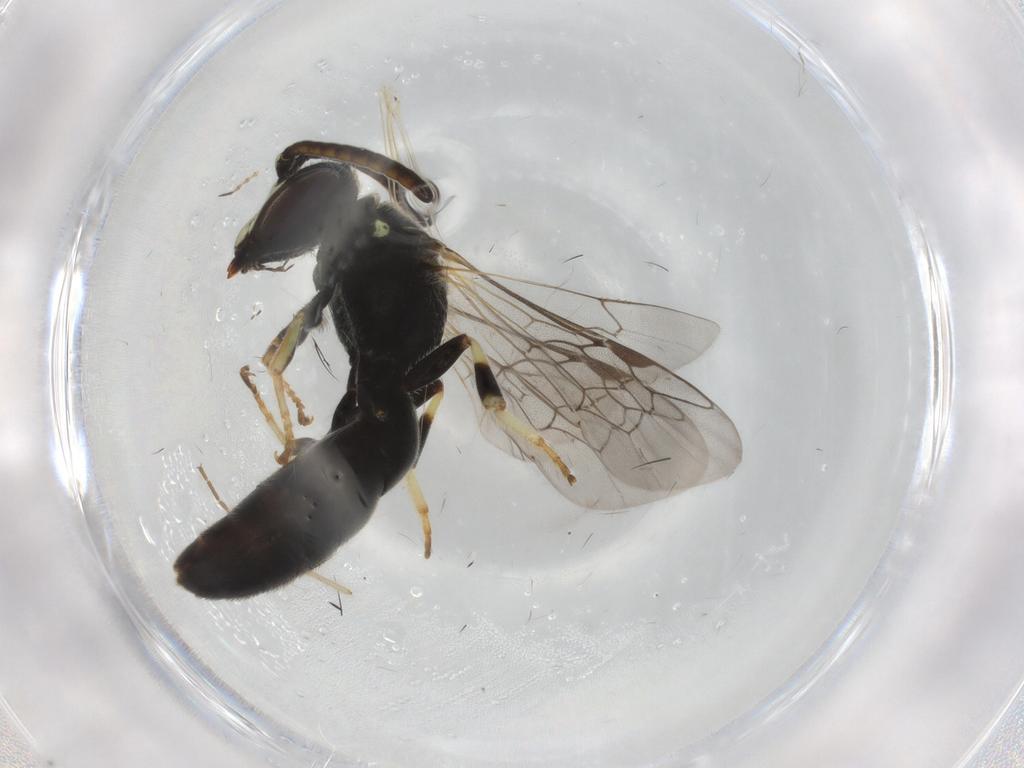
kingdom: Animalia
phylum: Arthropoda
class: Insecta
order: Hymenoptera
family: Colletidae
